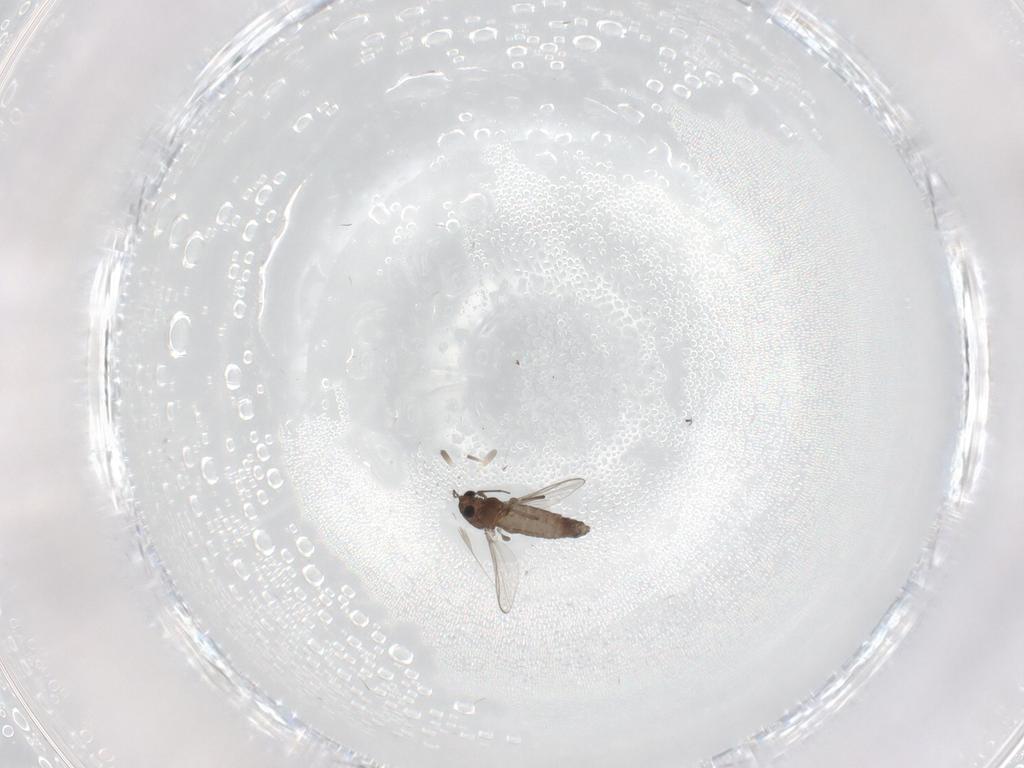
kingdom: Animalia
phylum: Arthropoda
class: Insecta
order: Diptera
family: Chironomidae
